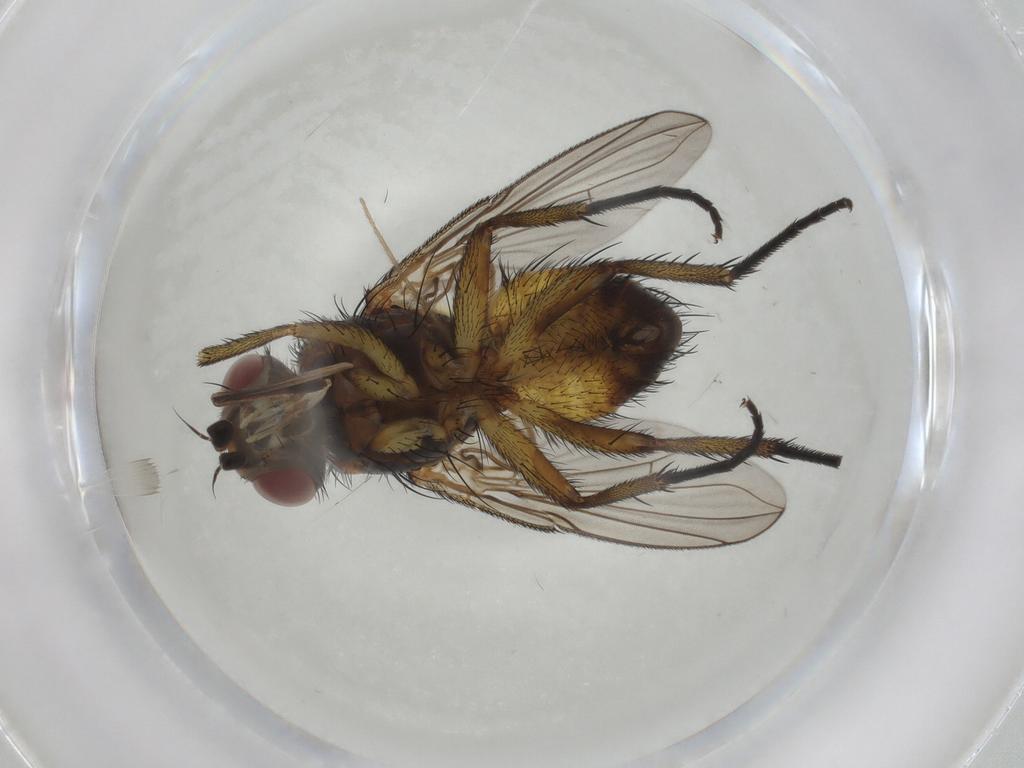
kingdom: Animalia
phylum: Arthropoda
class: Insecta
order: Diptera
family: Tachinidae
